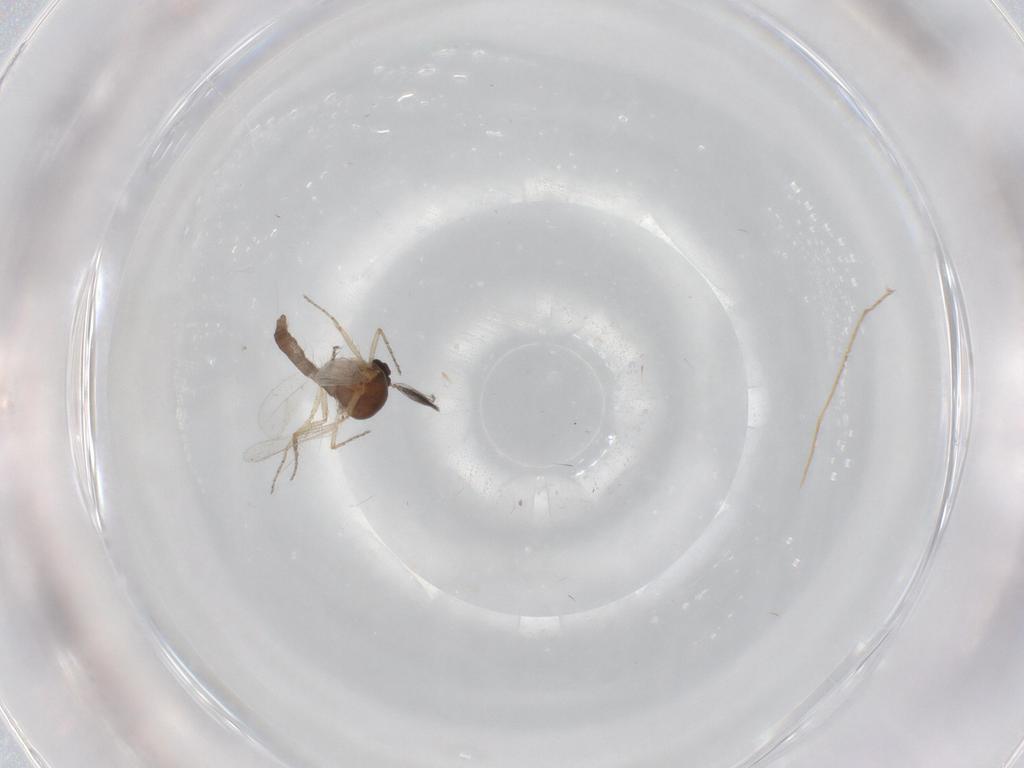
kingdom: Animalia
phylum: Arthropoda
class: Insecta
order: Diptera
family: Ceratopogonidae
